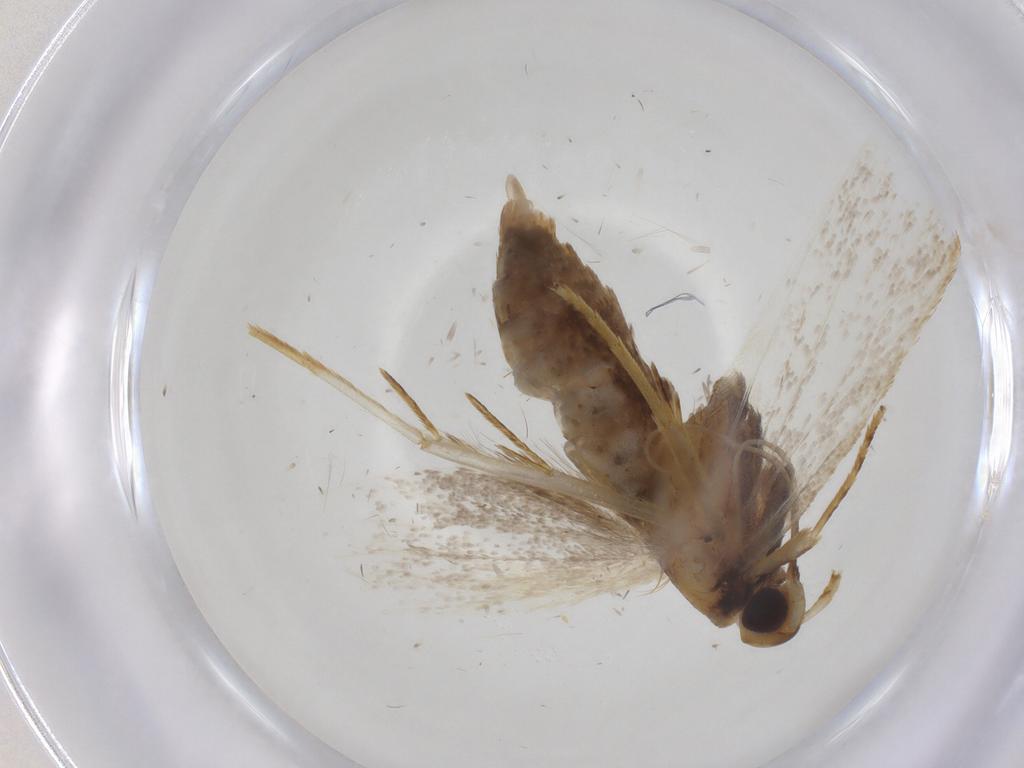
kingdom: Animalia
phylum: Arthropoda
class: Insecta
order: Lepidoptera
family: Lecithoceridae
